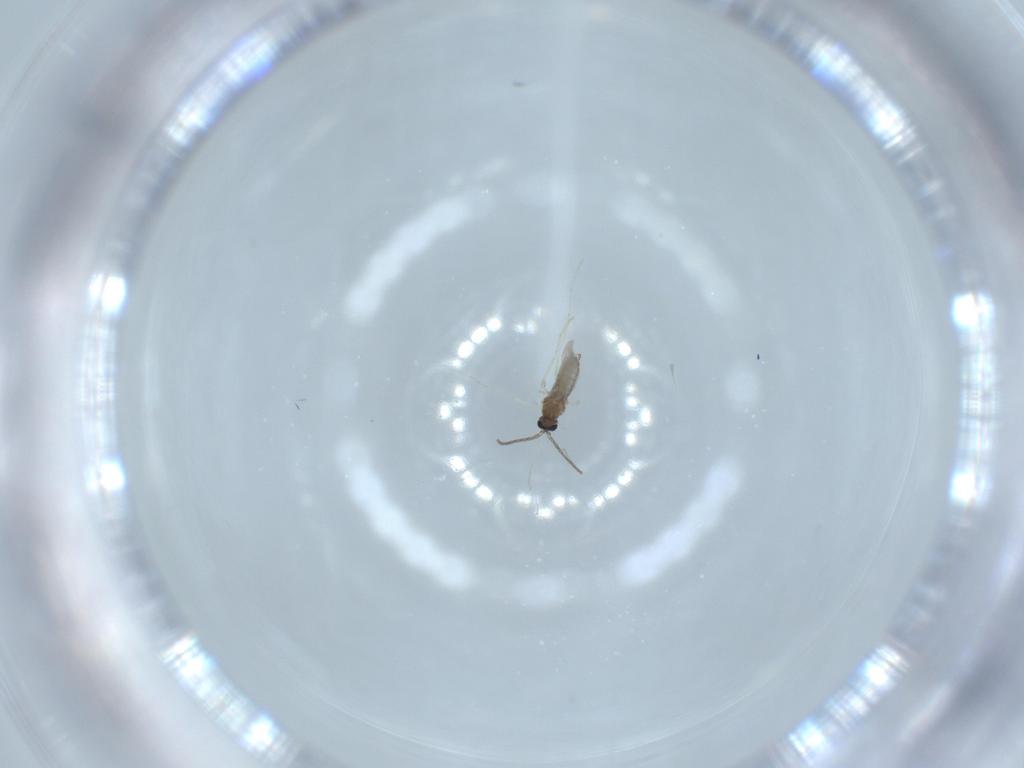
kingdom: Animalia
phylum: Arthropoda
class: Insecta
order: Diptera
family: Cecidomyiidae
